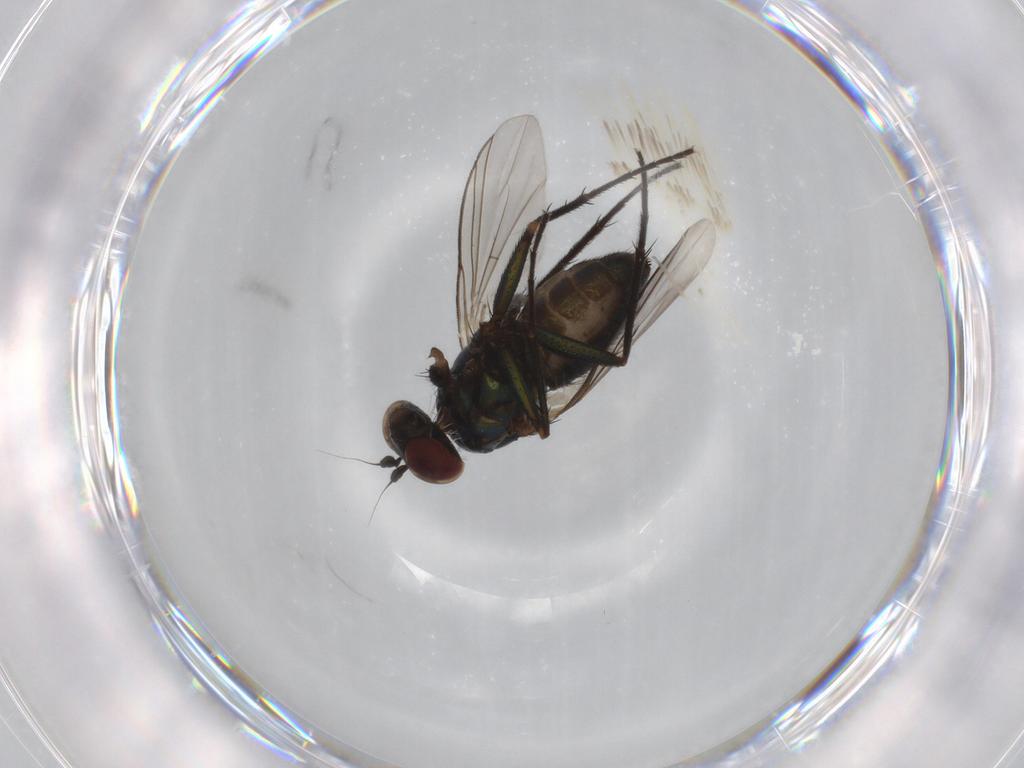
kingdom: Animalia
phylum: Arthropoda
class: Insecta
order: Diptera
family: Dolichopodidae
